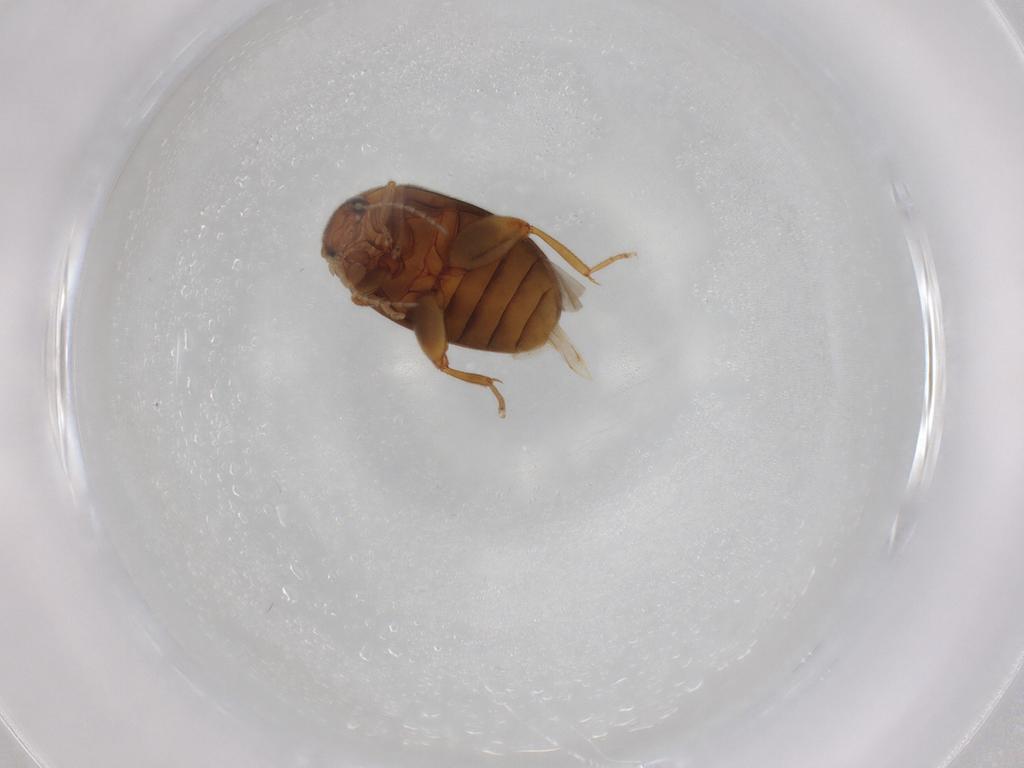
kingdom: Animalia
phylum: Arthropoda
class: Insecta
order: Coleoptera
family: Scirtidae
